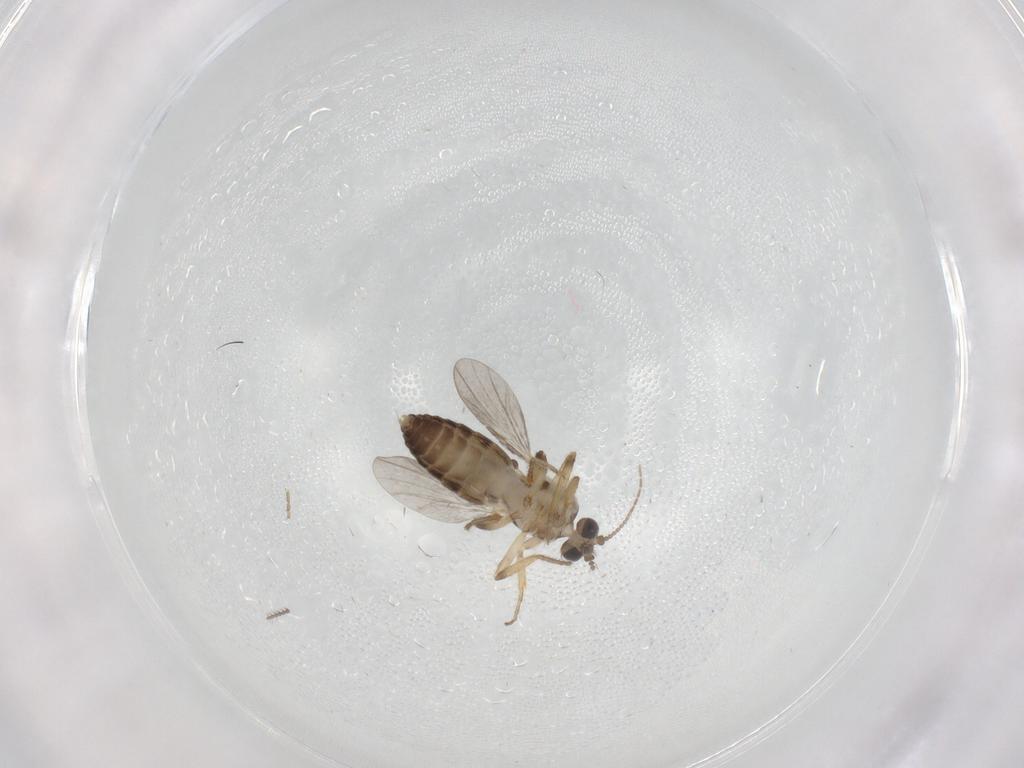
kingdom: Animalia
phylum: Arthropoda
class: Insecta
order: Diptera
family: Ceratopogonidae
